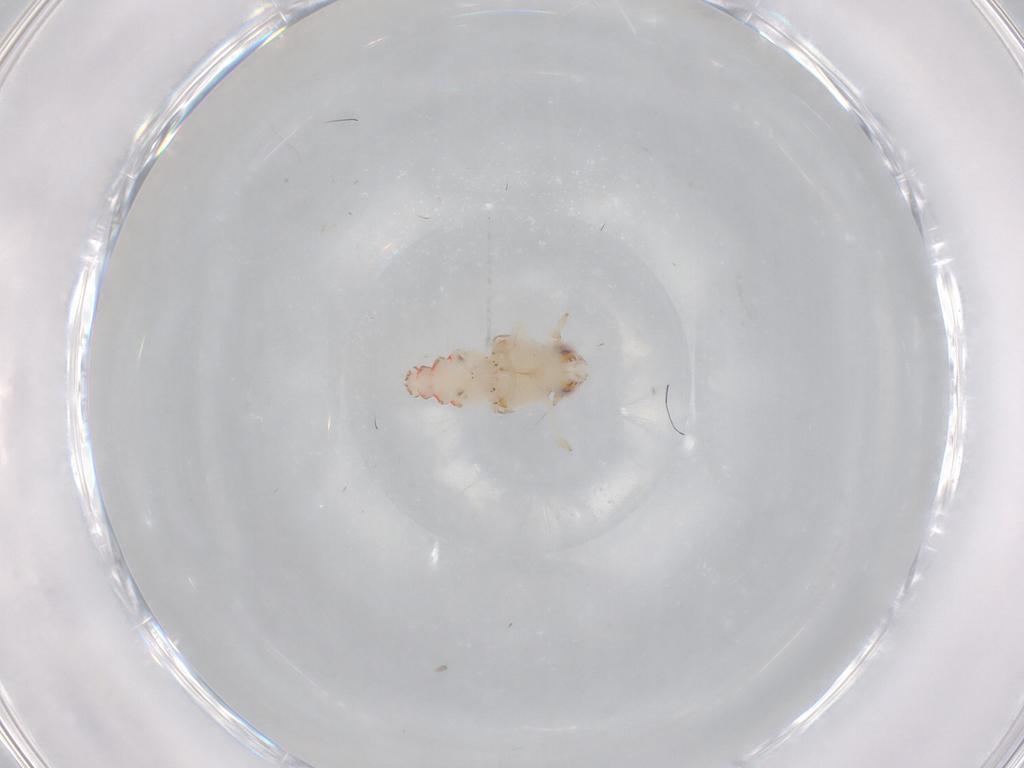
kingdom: Animalia
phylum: Arthropoda
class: Insecta
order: Hemiptera
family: Nogodinidae
